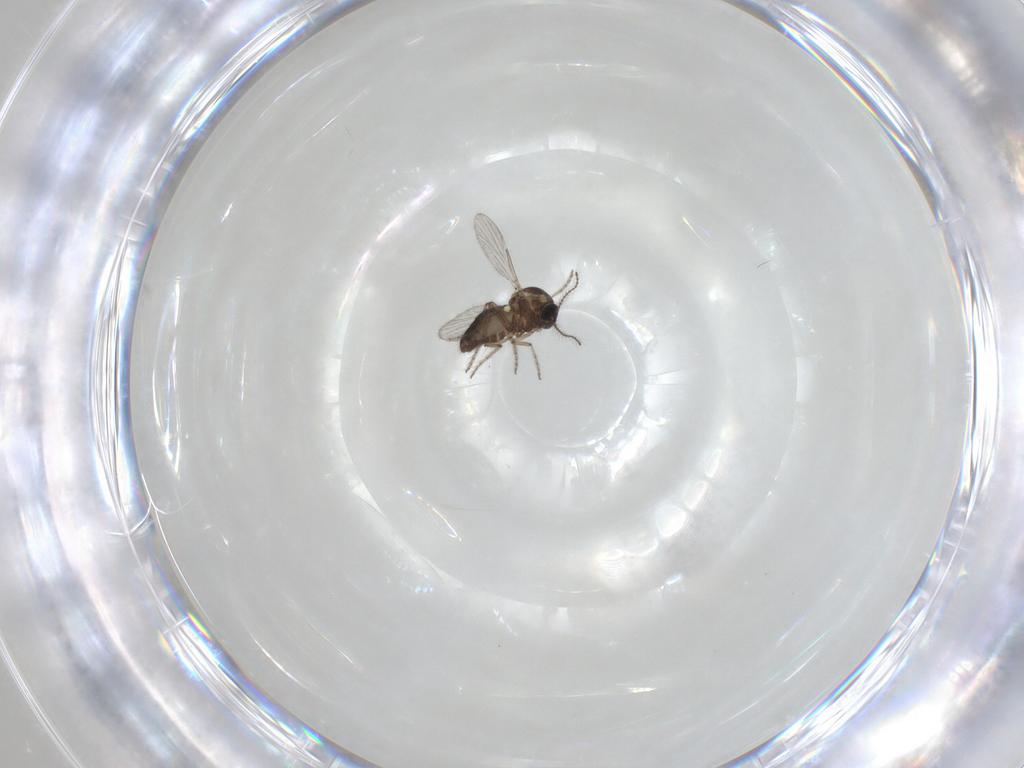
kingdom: Animalia
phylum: Arthropoda
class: Insecta
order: Diptera
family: Ceratopogonidae
